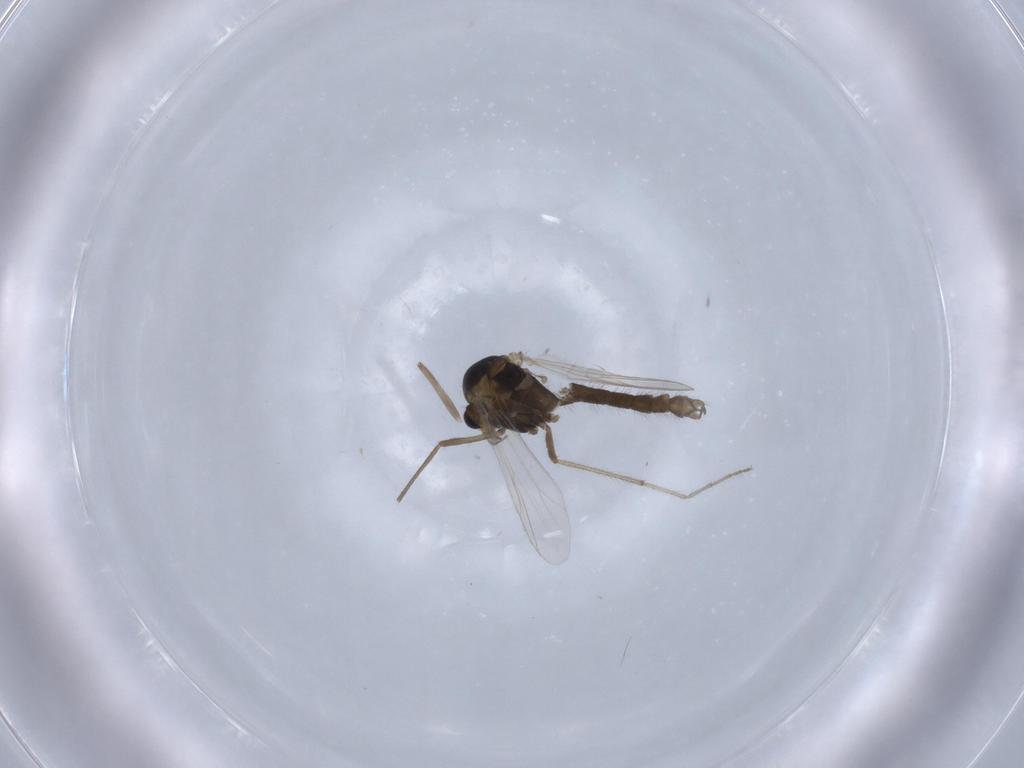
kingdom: Animalia
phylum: Arthropoda
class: Insecta
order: Diptera
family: Chironomidae
